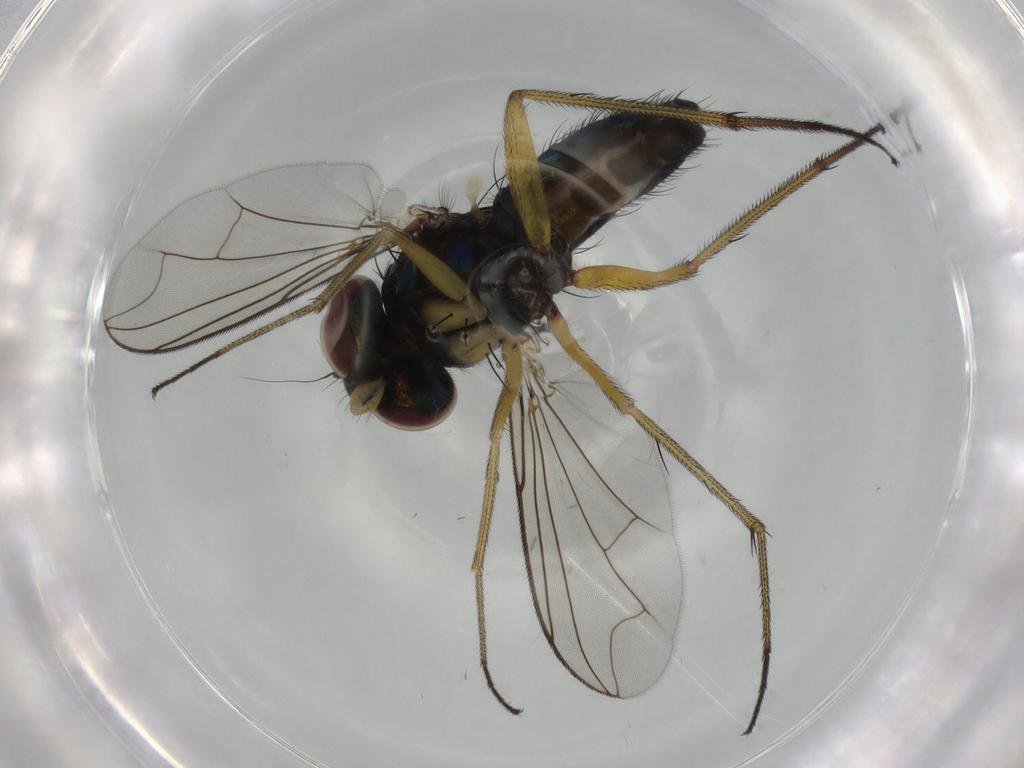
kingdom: Animalia
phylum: Arthropoda
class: Insecta
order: Diptera
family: Dolichopodidae
